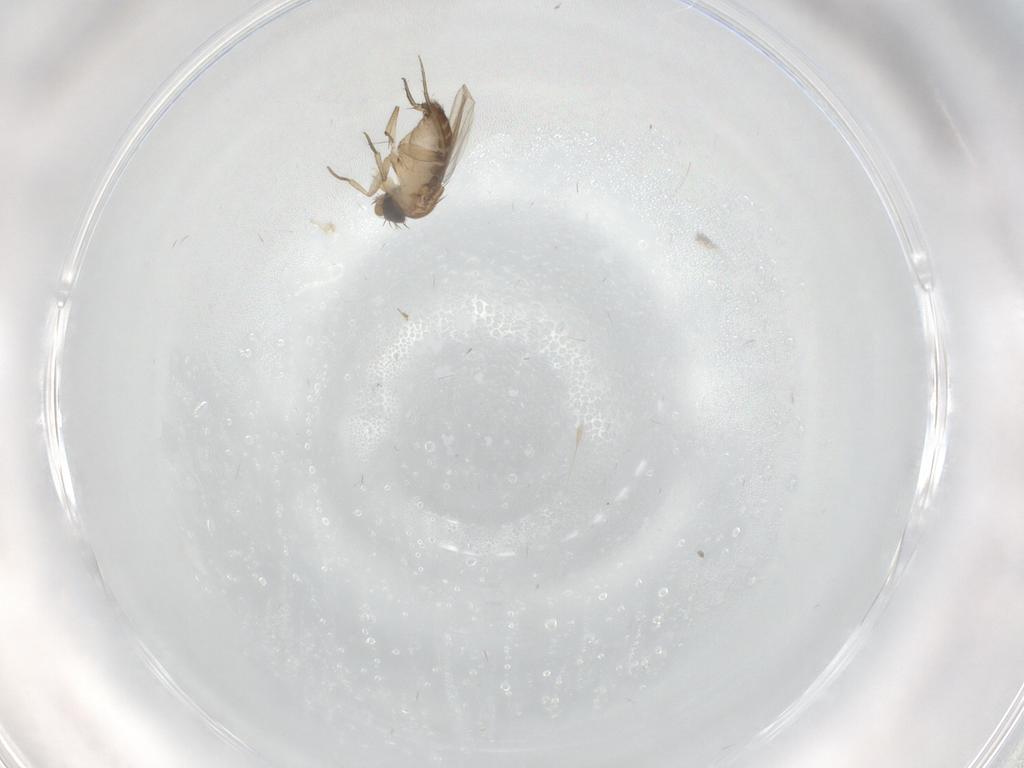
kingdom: Animalia
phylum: Arthropoda
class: Insecta
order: Diptera
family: Phoridae
